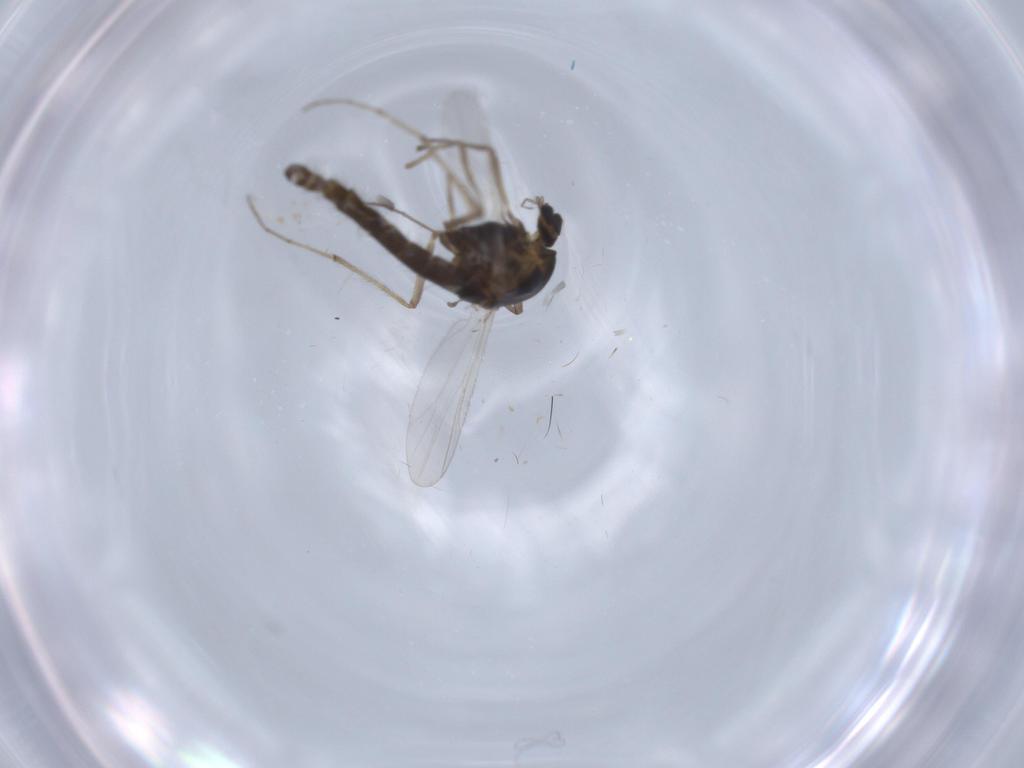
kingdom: Animalia
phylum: Arthropoda
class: Insecta
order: Diptera
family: Chironomidae
